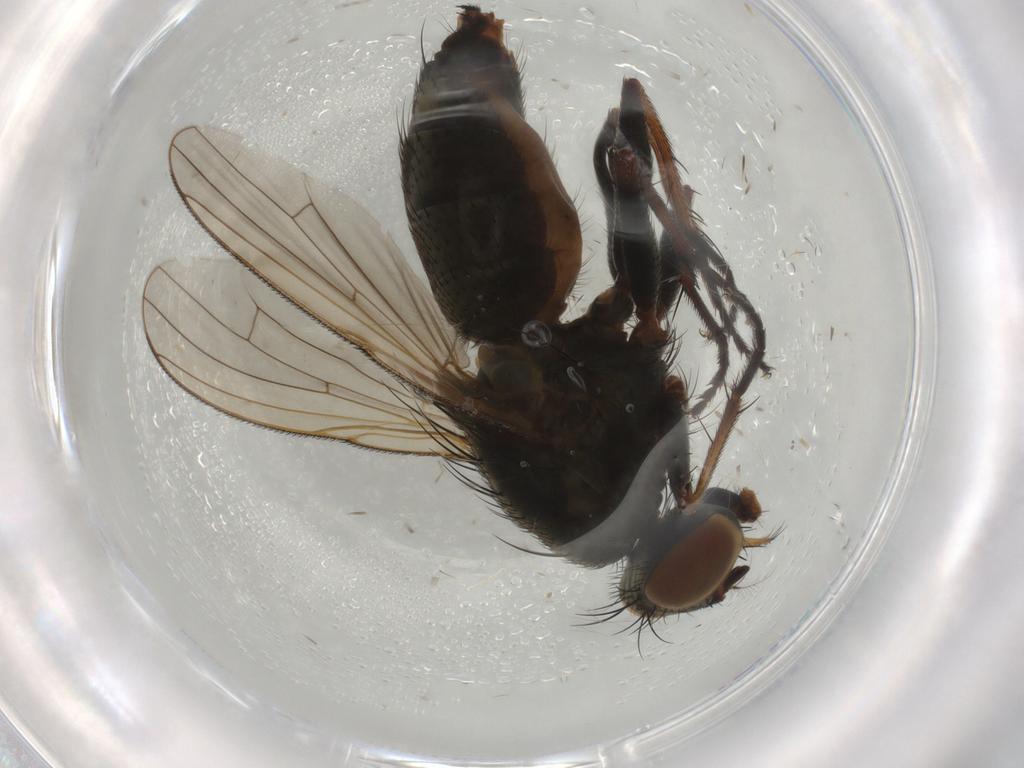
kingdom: Animalia
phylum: Arthropoda
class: Insecta
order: Diptera
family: Muscidae
